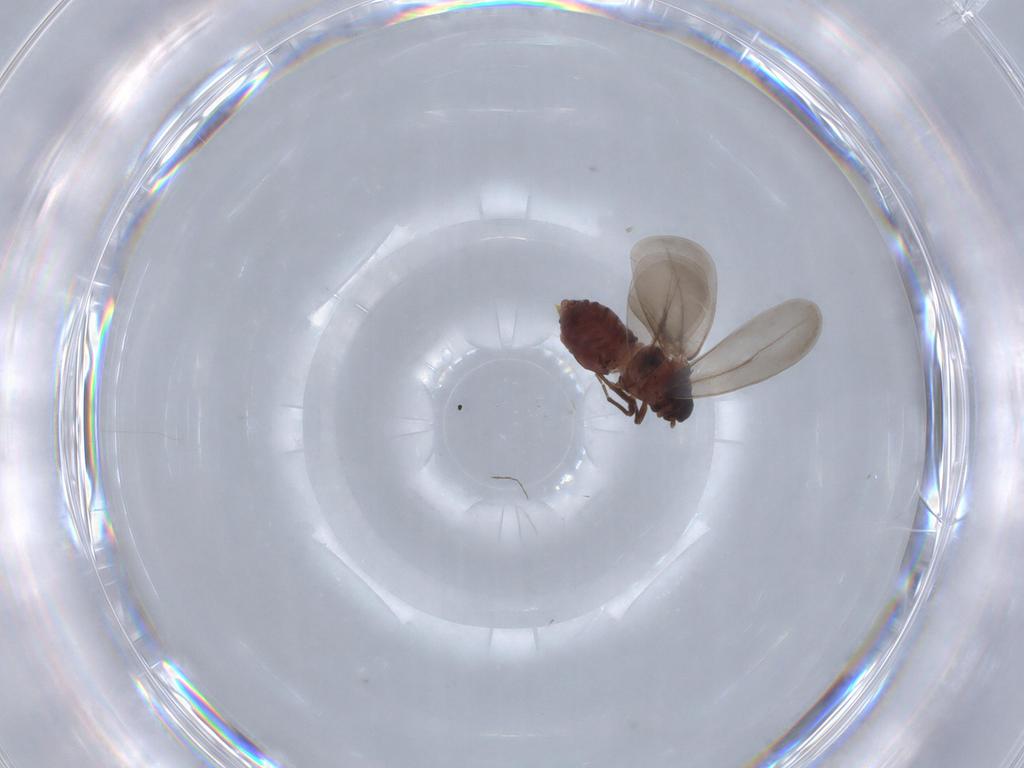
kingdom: Animalia
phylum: Arthropoda
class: Insecta
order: Hemiptera
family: Aleyrodidae
